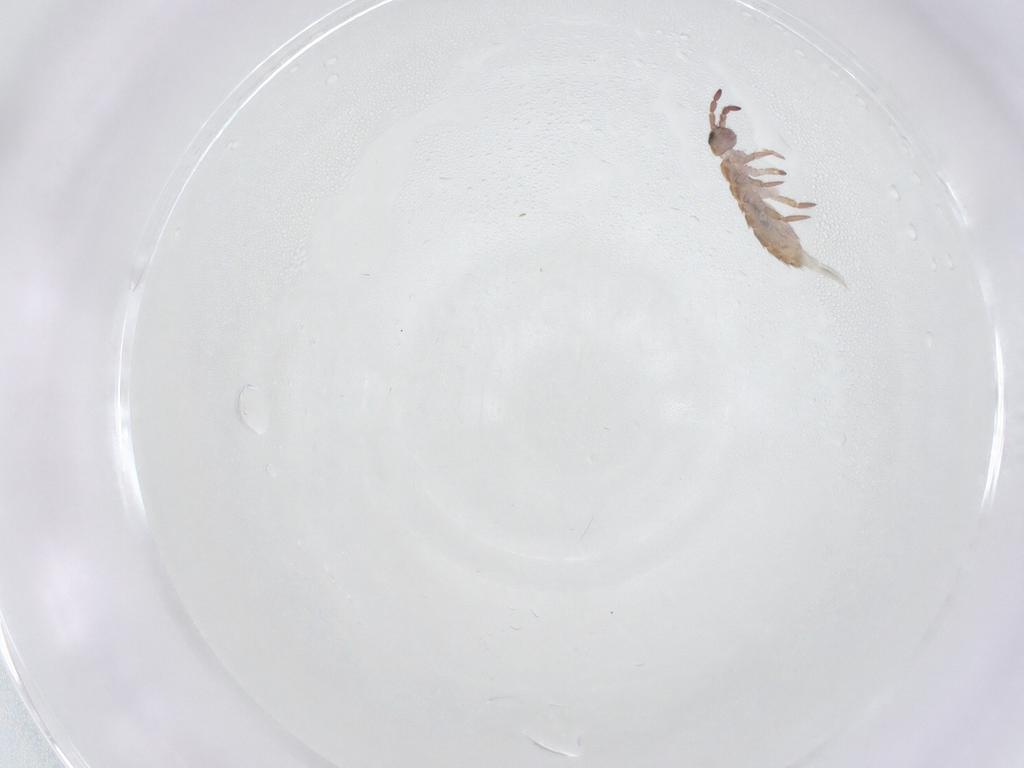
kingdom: Animalia
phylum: Arthropoda
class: Collembola
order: Entomobryomorpha
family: Isotomidae
